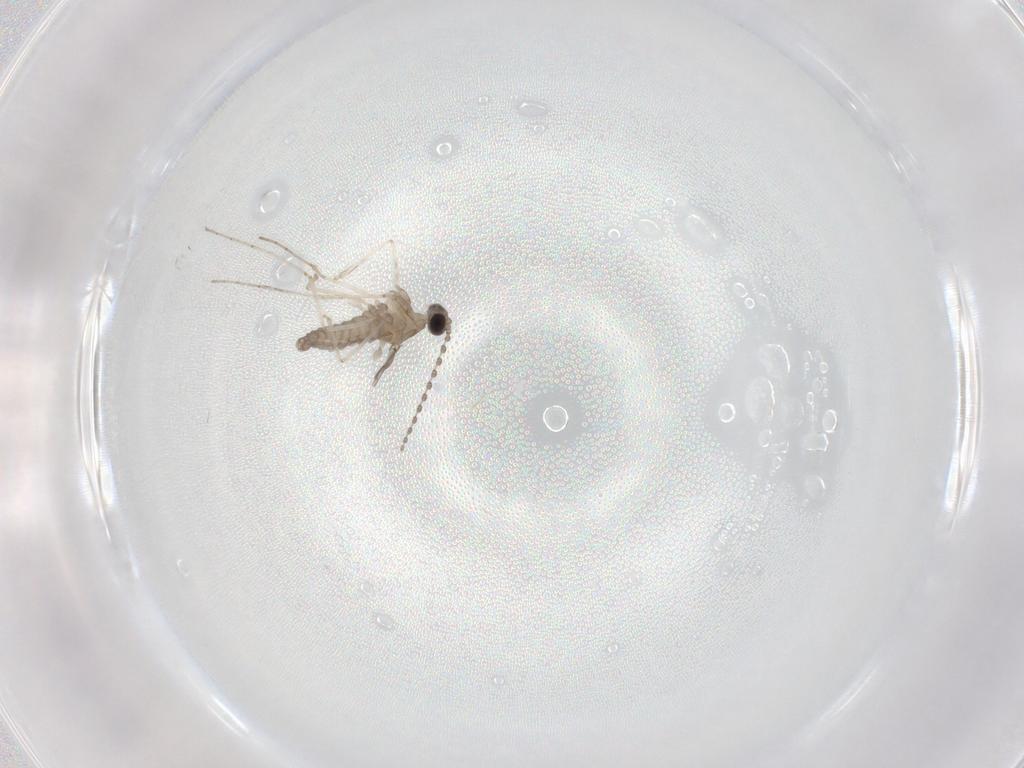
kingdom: Animalia
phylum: Arthropoda
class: Insecta
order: Diptera
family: Cecidomyiidae
